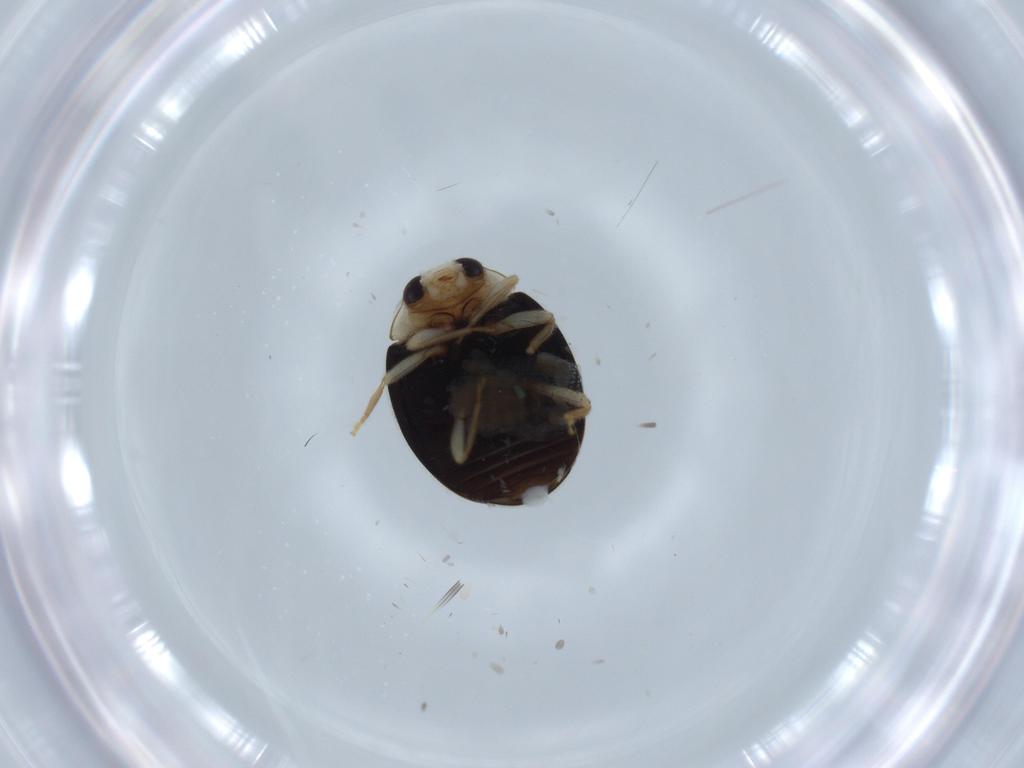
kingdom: Animalia
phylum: Arthropoda
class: Insecta
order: Coleoptera
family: Coccinellidae
